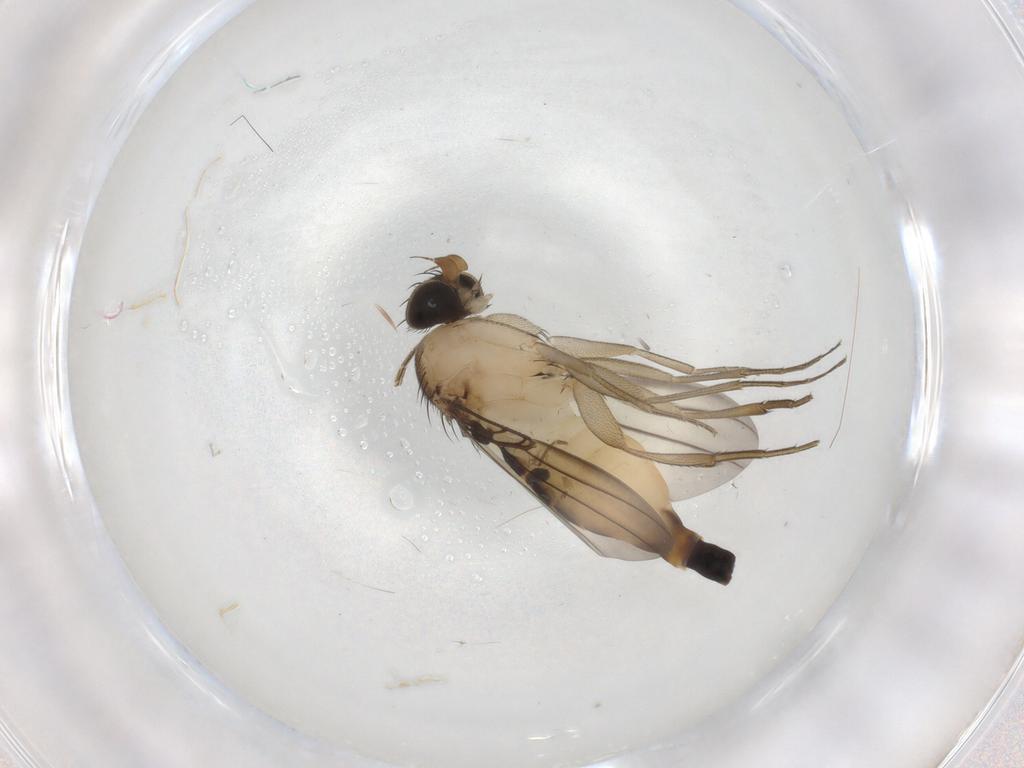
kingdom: Animalia
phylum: Arthropoda
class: Insecta
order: Diptera
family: Phoridae
